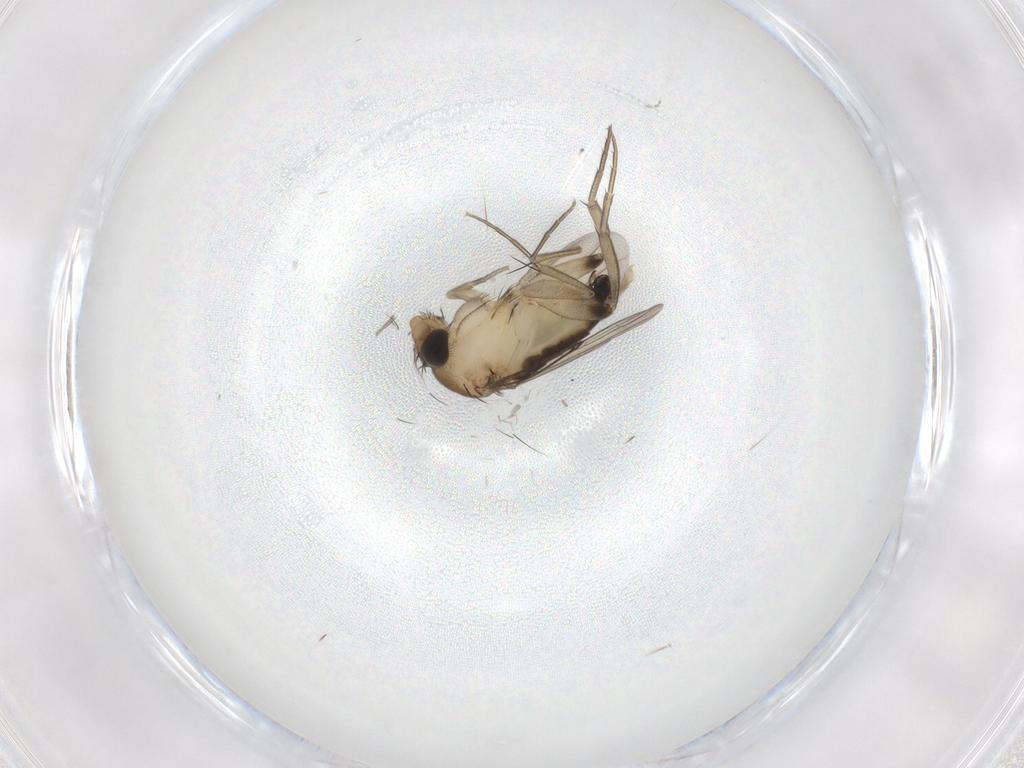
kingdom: Animalia
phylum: Arthropoda
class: Insecta
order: Diptera
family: Phoridae
